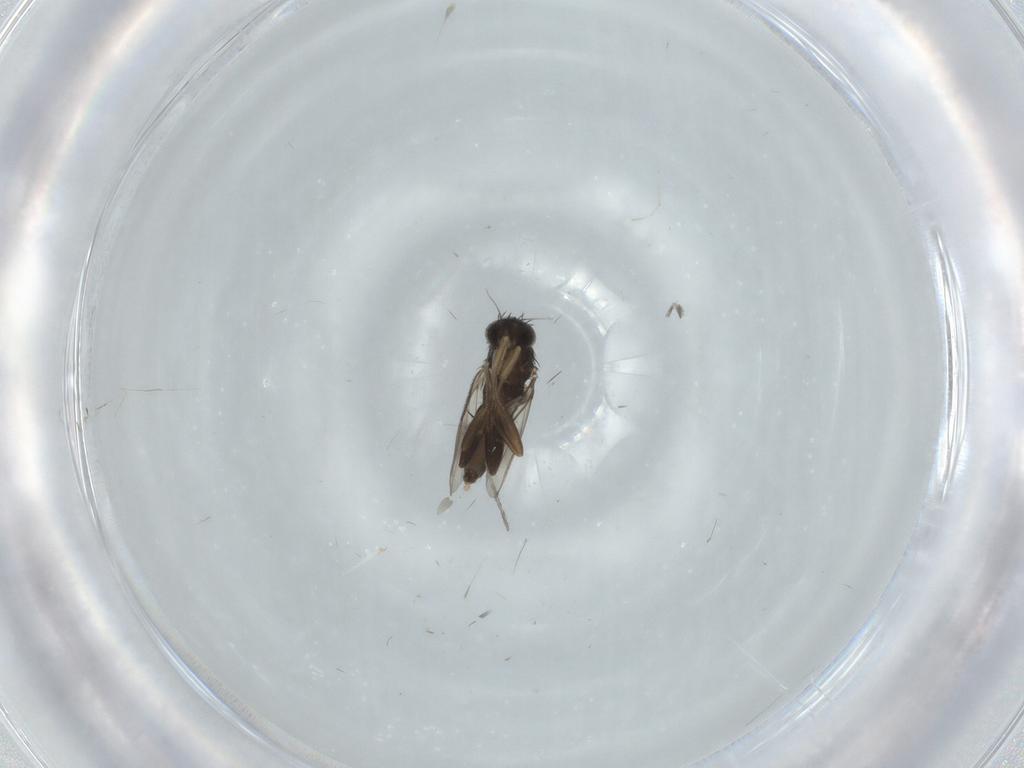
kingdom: Animalia
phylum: Arthropoda
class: Insecta
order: Diptera
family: Phoridae
